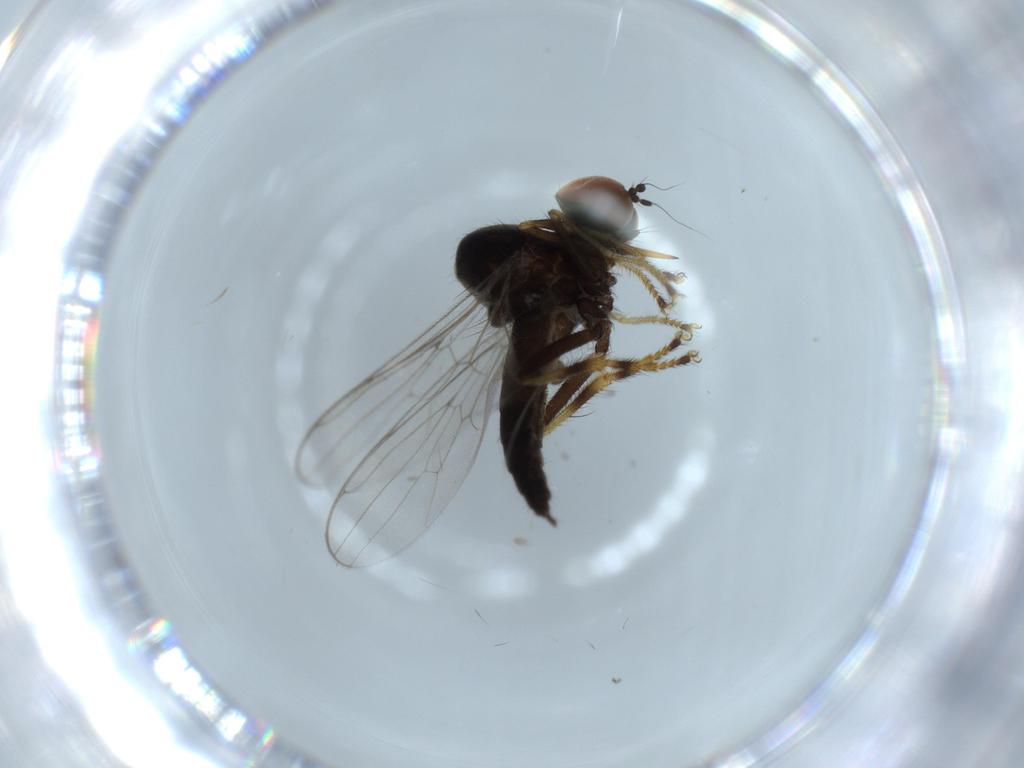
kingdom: Animalia
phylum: Arthropoda
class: Insecta
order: Diptera
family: Hybotidae
